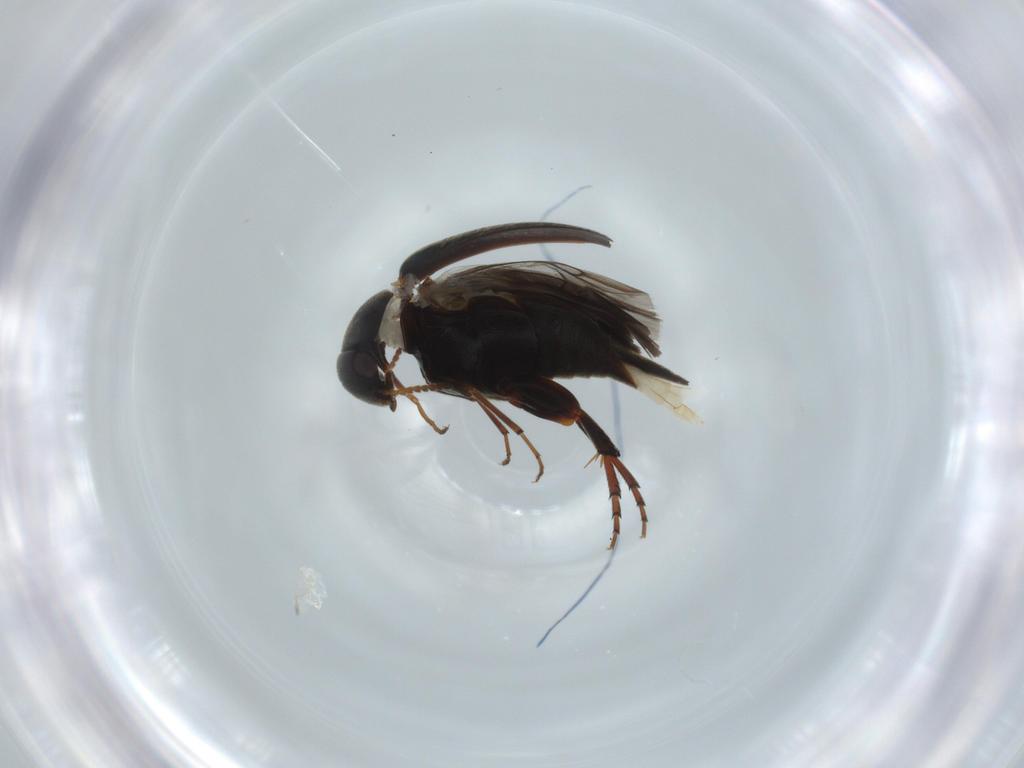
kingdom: Animalia
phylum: Arthropoda
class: Insecta
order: Coleoptera
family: Mordellidae
